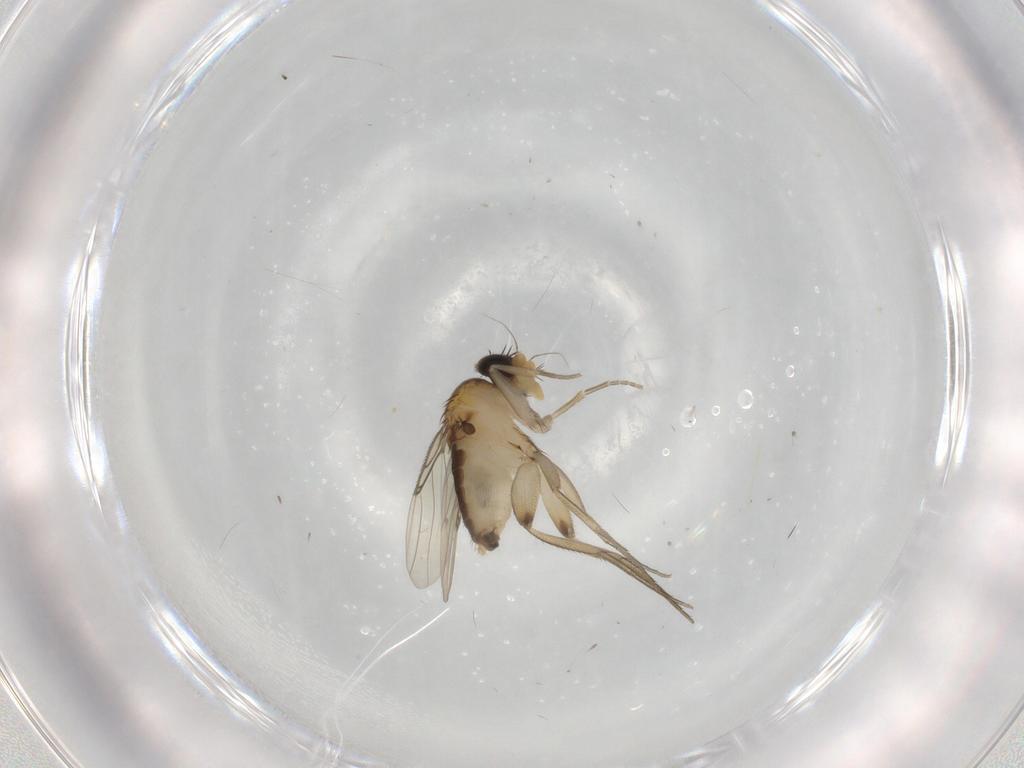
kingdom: Animalia
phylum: Arthropoda
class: Insecta
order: Diptera
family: Phoridae
